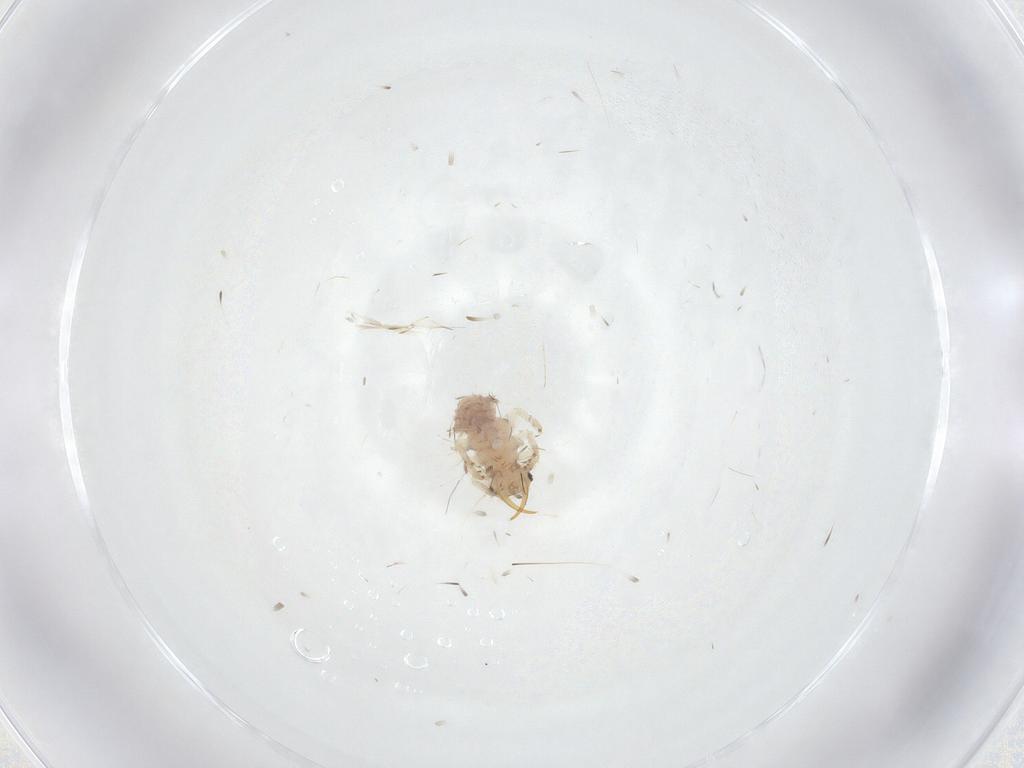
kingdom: Animalia
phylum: Arthropoda
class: Insecta
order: Neuroptera
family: Chrysopidae
